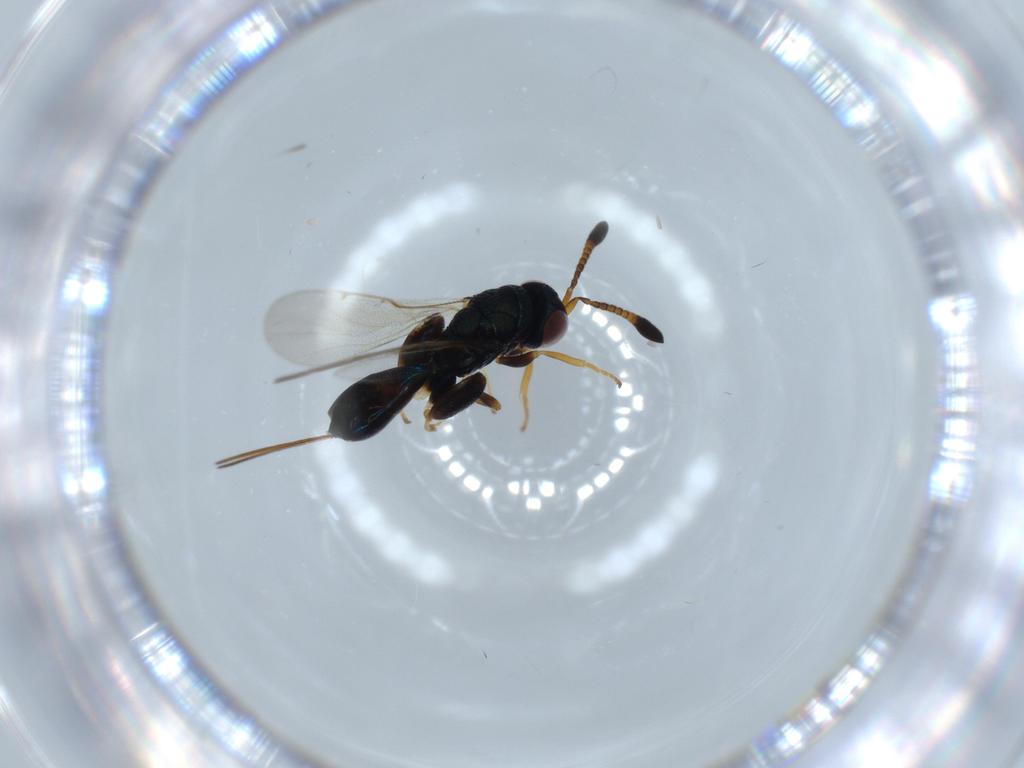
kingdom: Animalia
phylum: Arthropoda
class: Insecta
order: Hymenoptera
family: Torymidae
